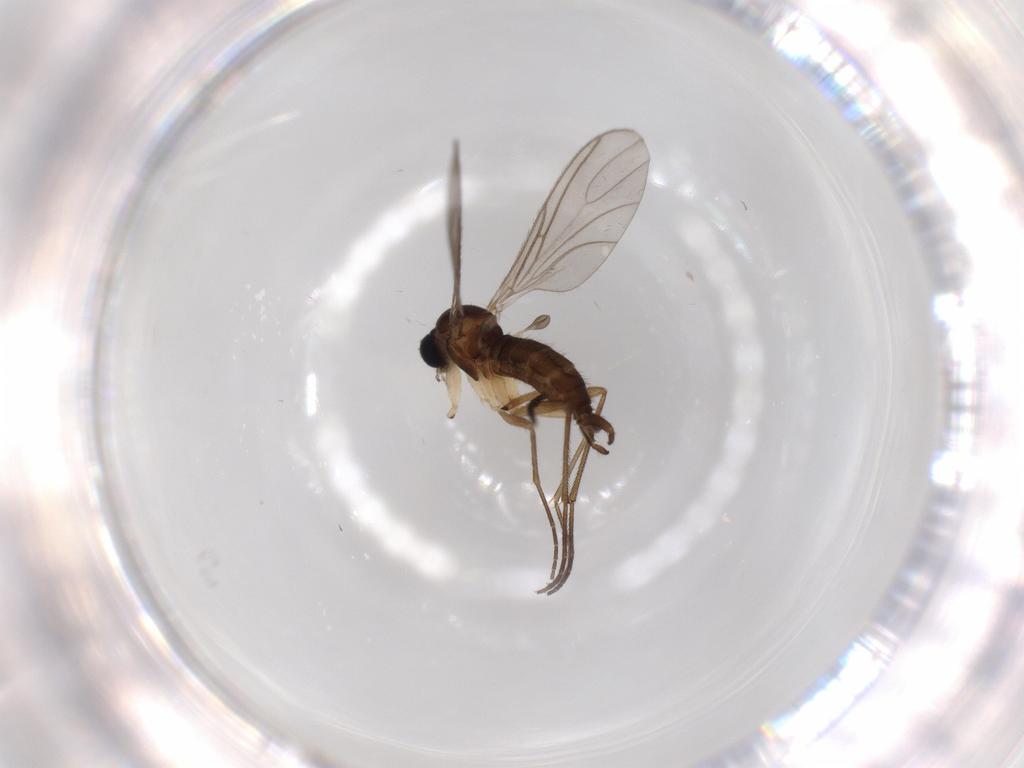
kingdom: Animalia
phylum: Arthropoda
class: Insecta
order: Diptera
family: Sciaridae
